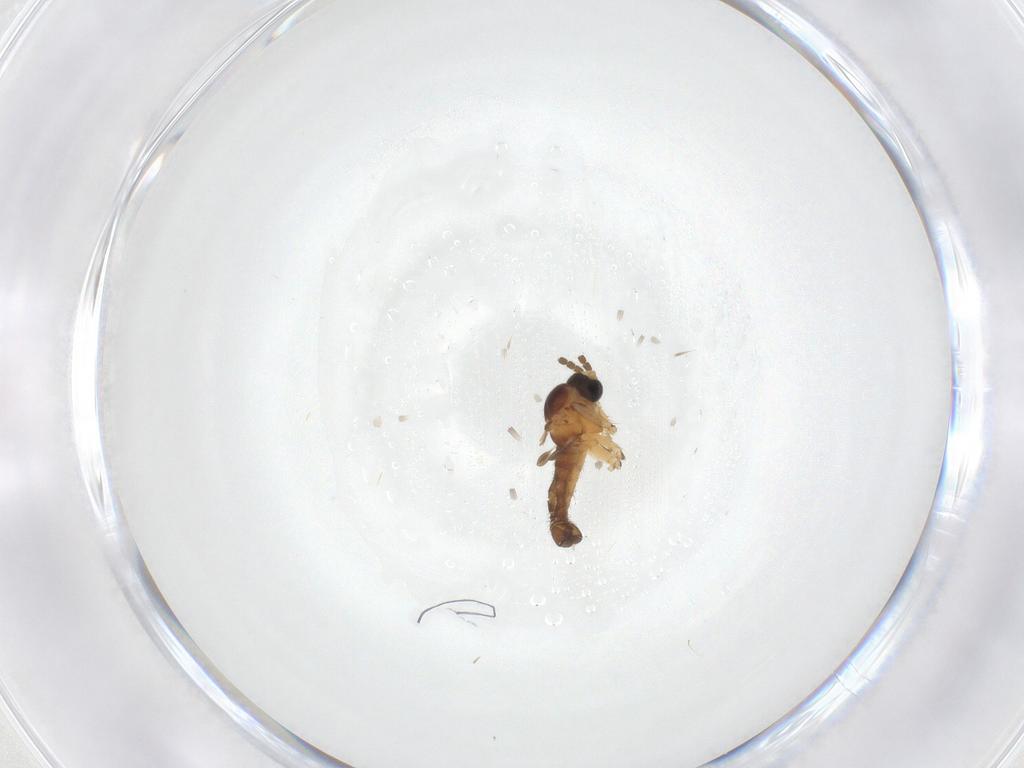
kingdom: Animalia
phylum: Arthropoda
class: Insecta
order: Diptera
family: Sciaridae
